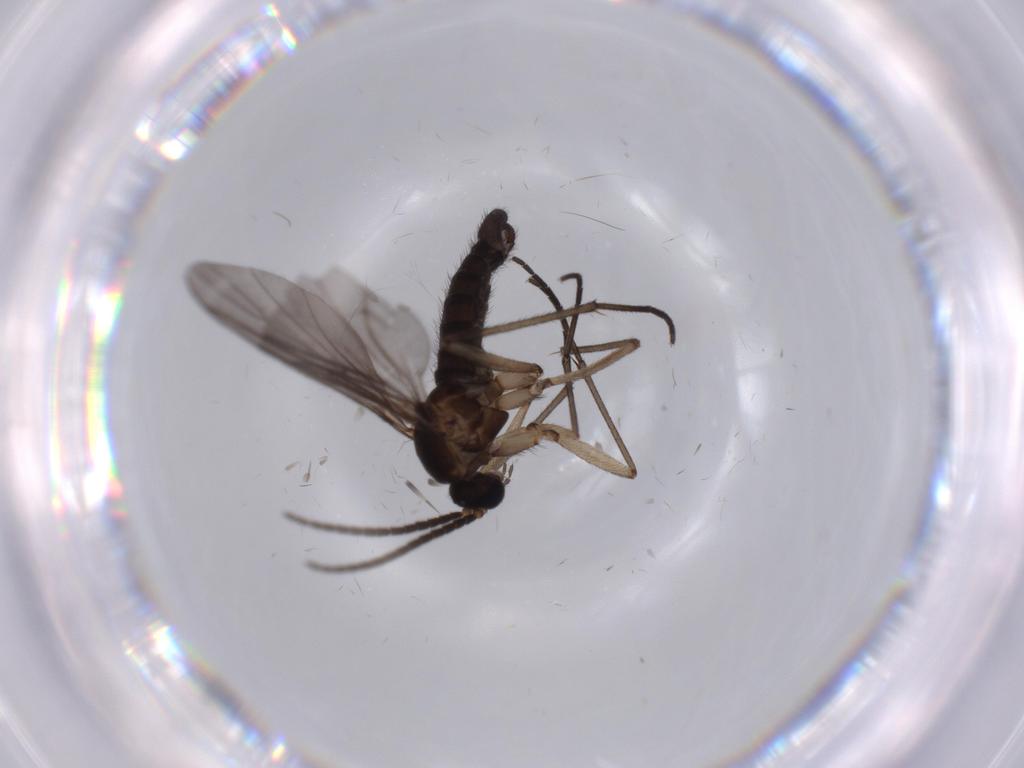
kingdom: Animalia
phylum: Arthropoda
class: Insecta
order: Diptera
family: Sciaridae
